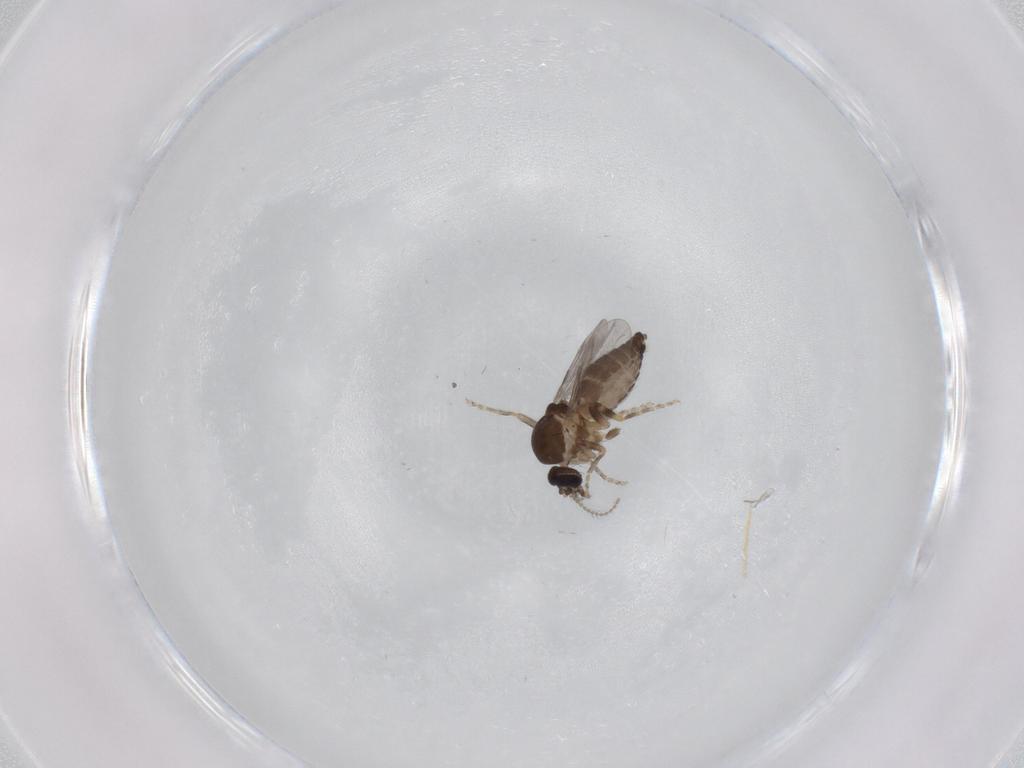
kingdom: Animalia
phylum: Arthropoda
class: Insecta
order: Diptera
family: Ceratopogonidae
